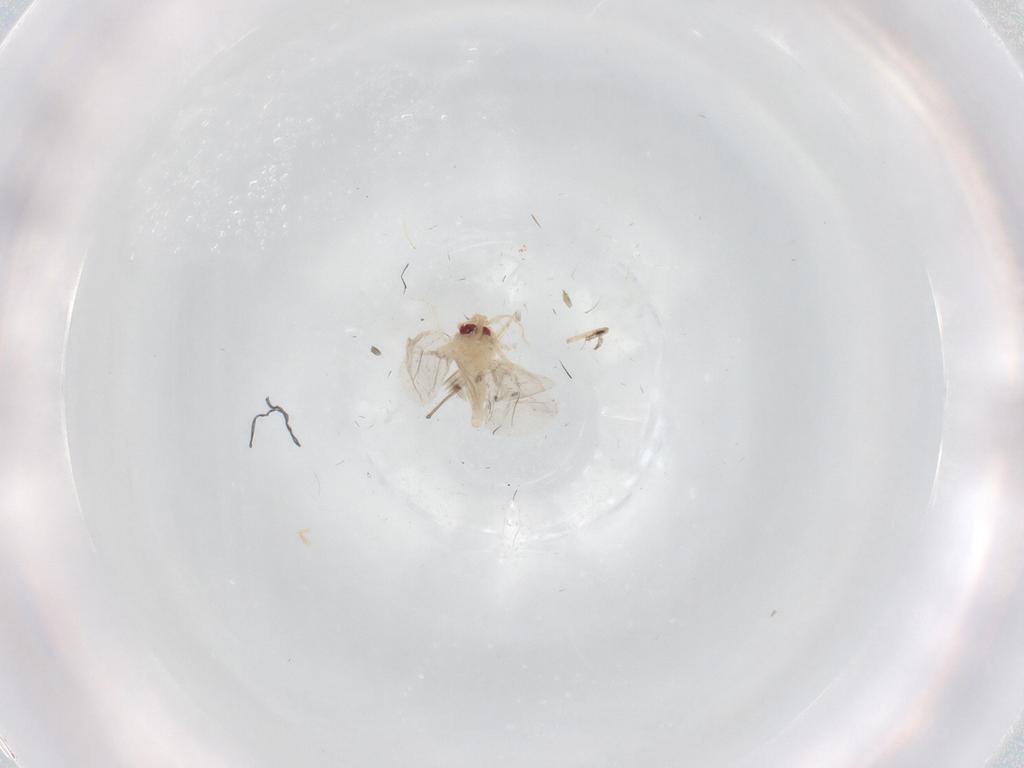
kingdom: Animalia
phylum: Arthropoda
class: Insecta
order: Hemiptera
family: Aleyrodidae
